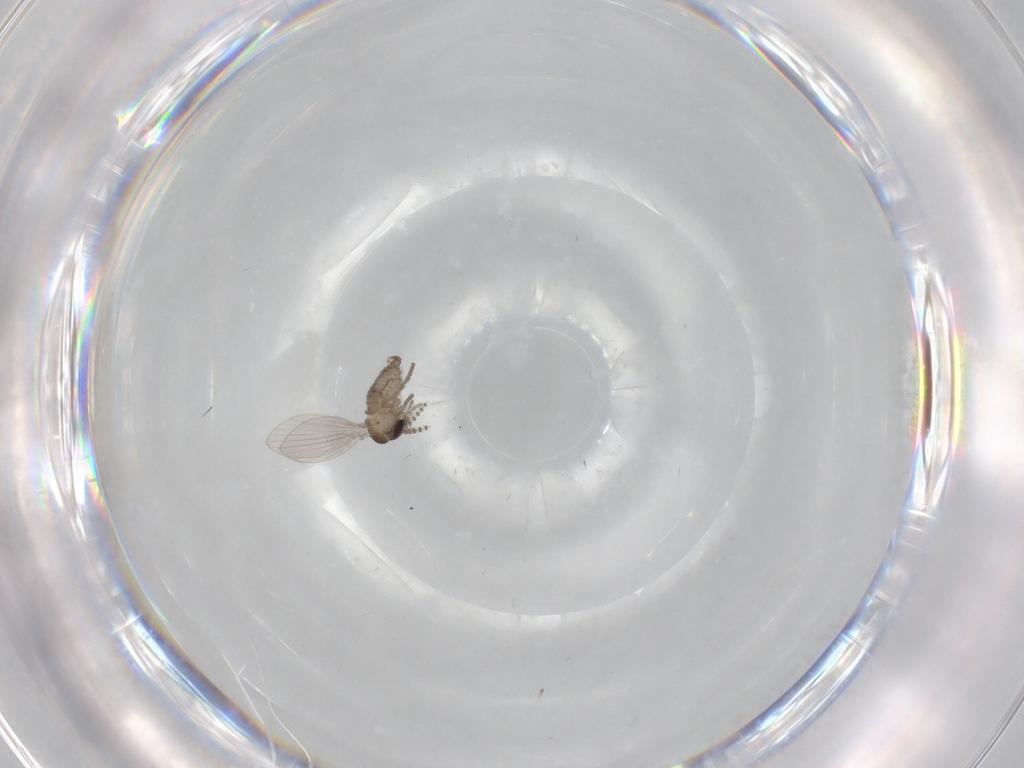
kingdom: Animalia
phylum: Arthropoda
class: Insecta
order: Diptera
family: Psychodidae
